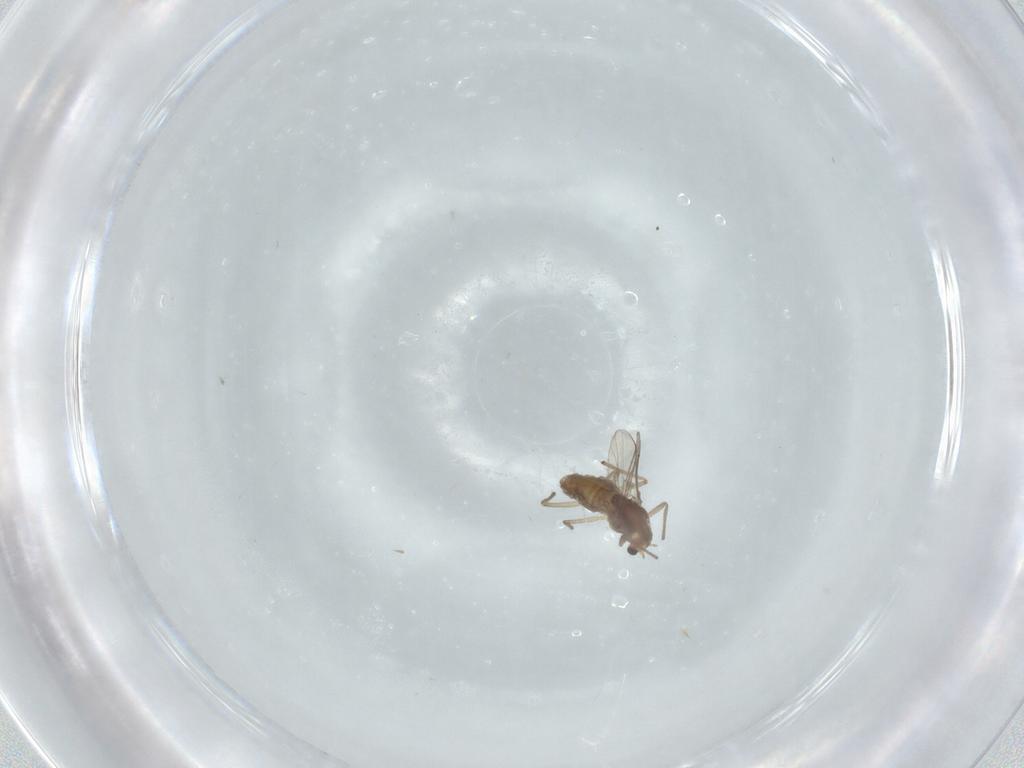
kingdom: Animalia
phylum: Arthropoda
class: Insecta
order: Diptera
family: Chironomidae
